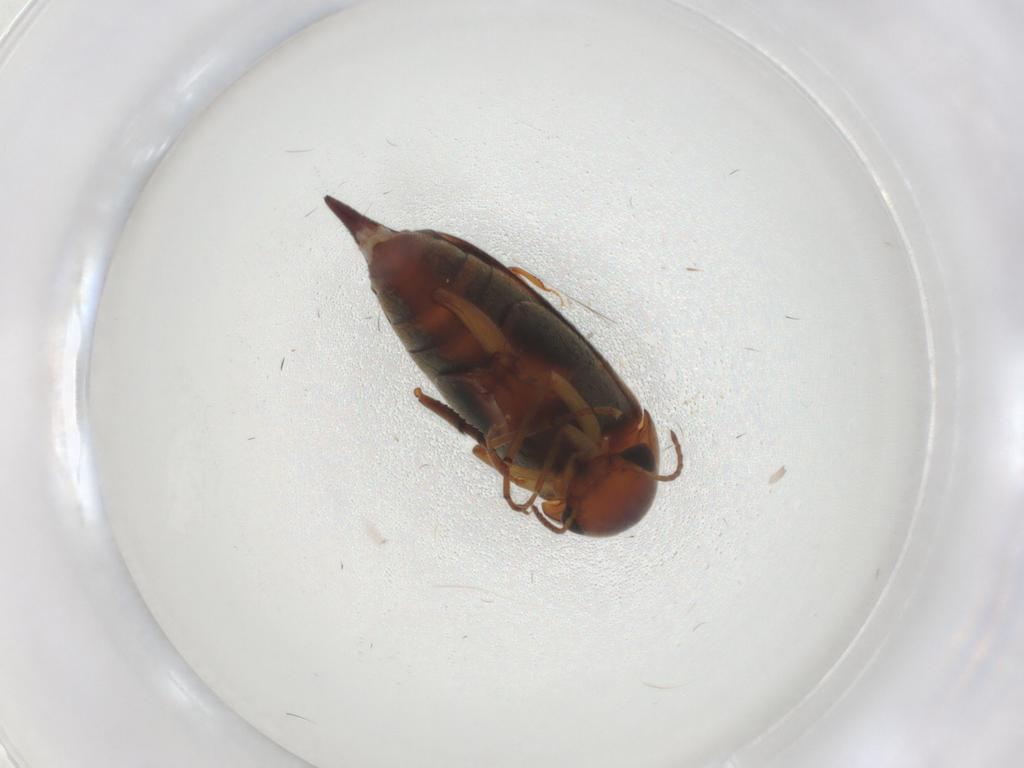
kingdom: Animalia
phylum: Arthropoda
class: Insecta
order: Coleoptera
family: Mordellidae
